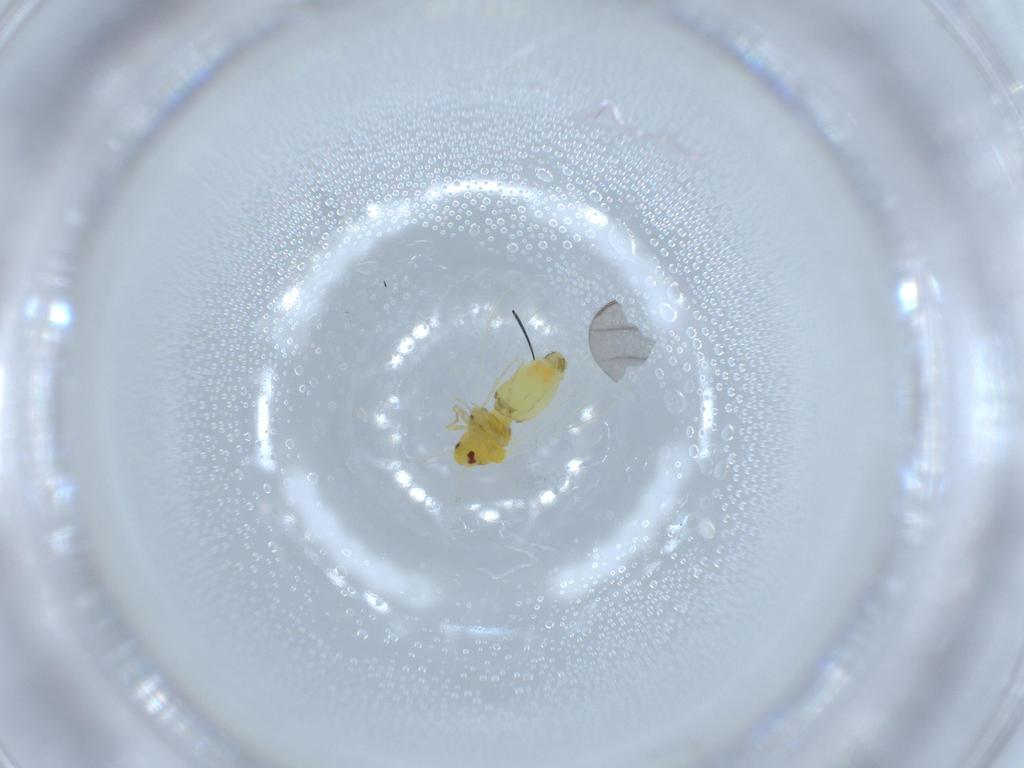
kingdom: Animalia
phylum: Arthropoda
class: Insecta
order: Hemiptera
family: Aleyrodidae
